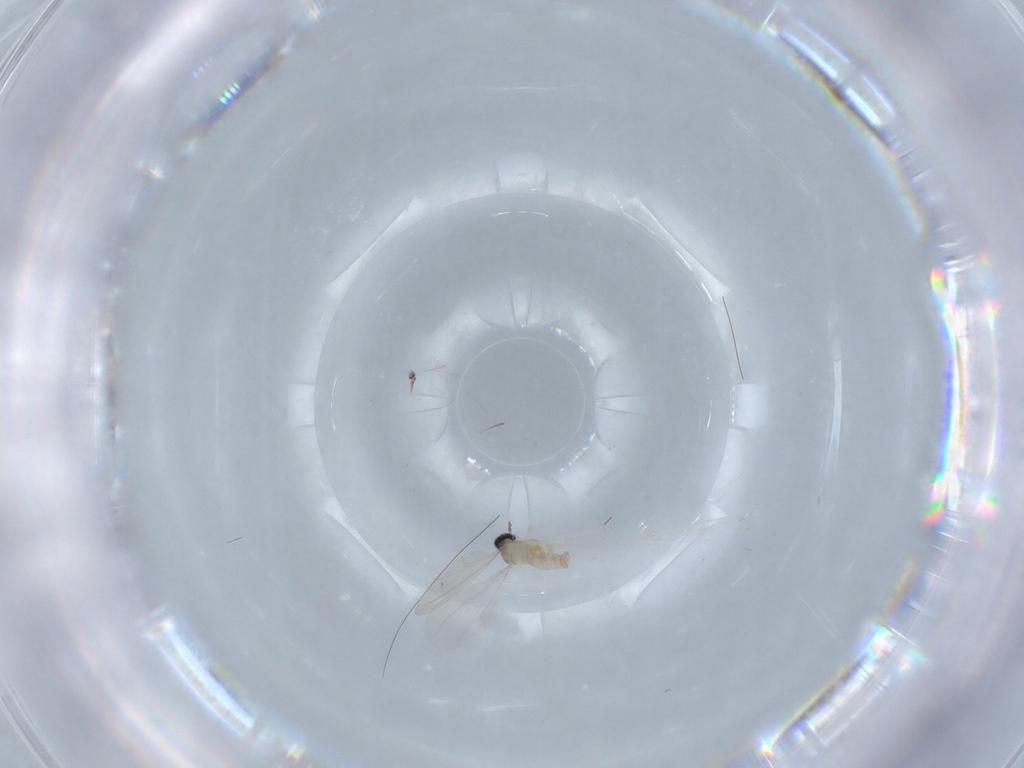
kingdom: Animalia
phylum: Arthropoda
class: Insecta
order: Diptera
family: Cecidomyiidae
